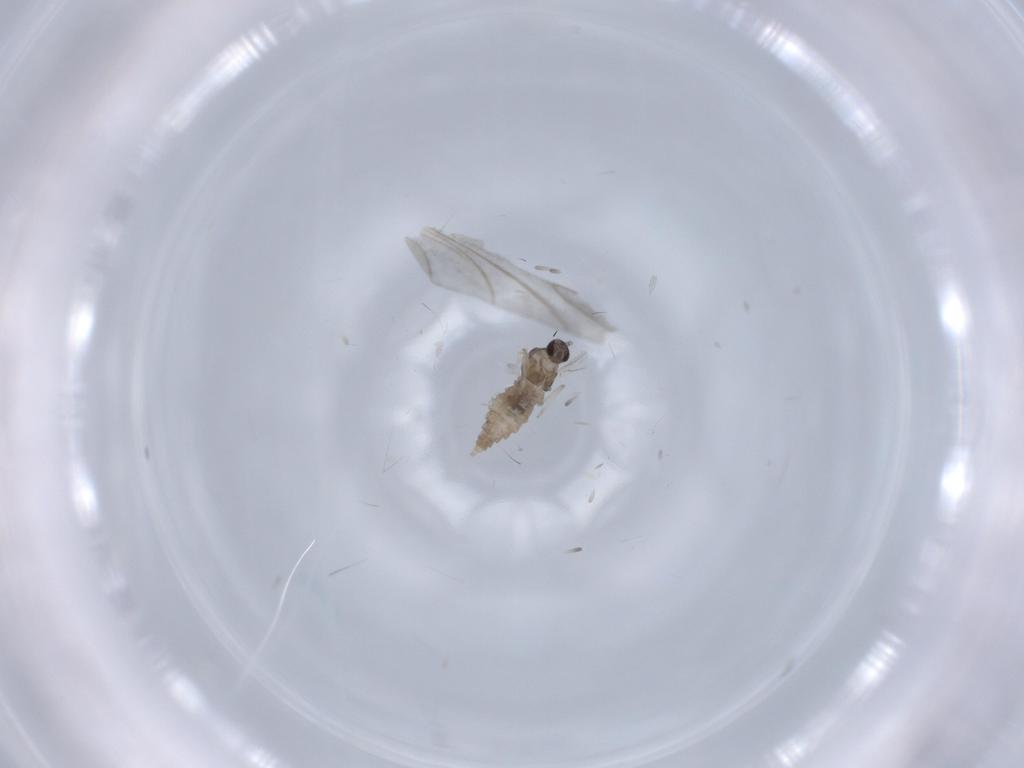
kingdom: Animalia
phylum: Arthropoda
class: Insecta
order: Diptera
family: Cecidomyiidae
